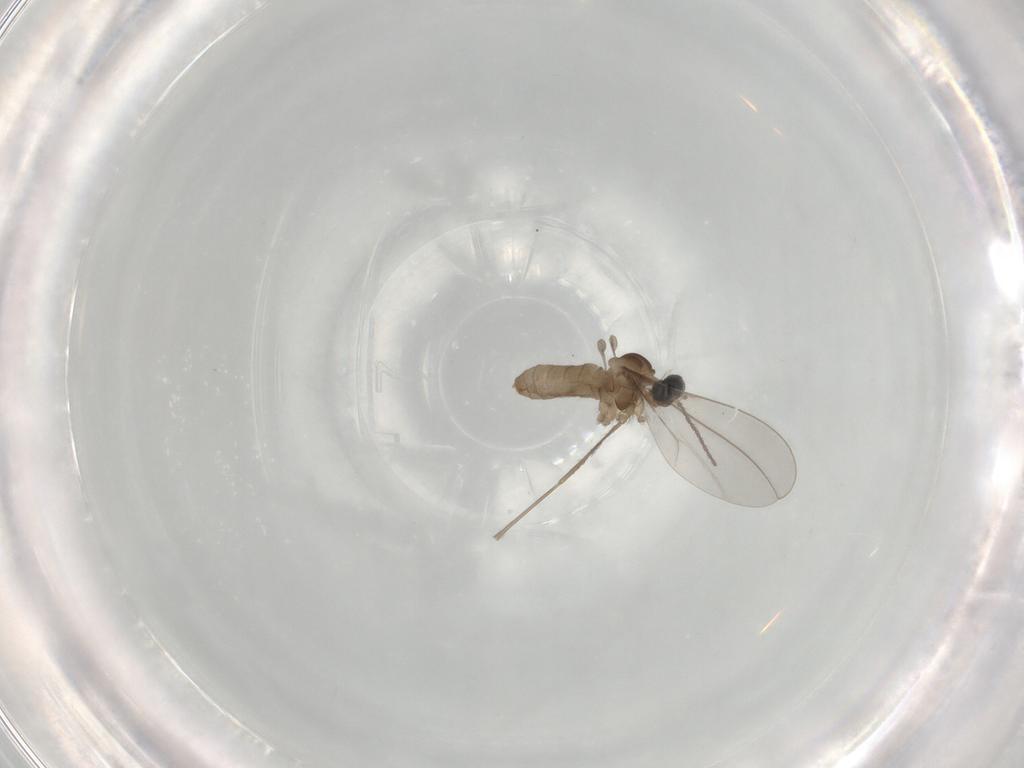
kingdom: Animalia
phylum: Arthropoda
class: Insecta
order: Diptera
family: Cecidomyiidae
